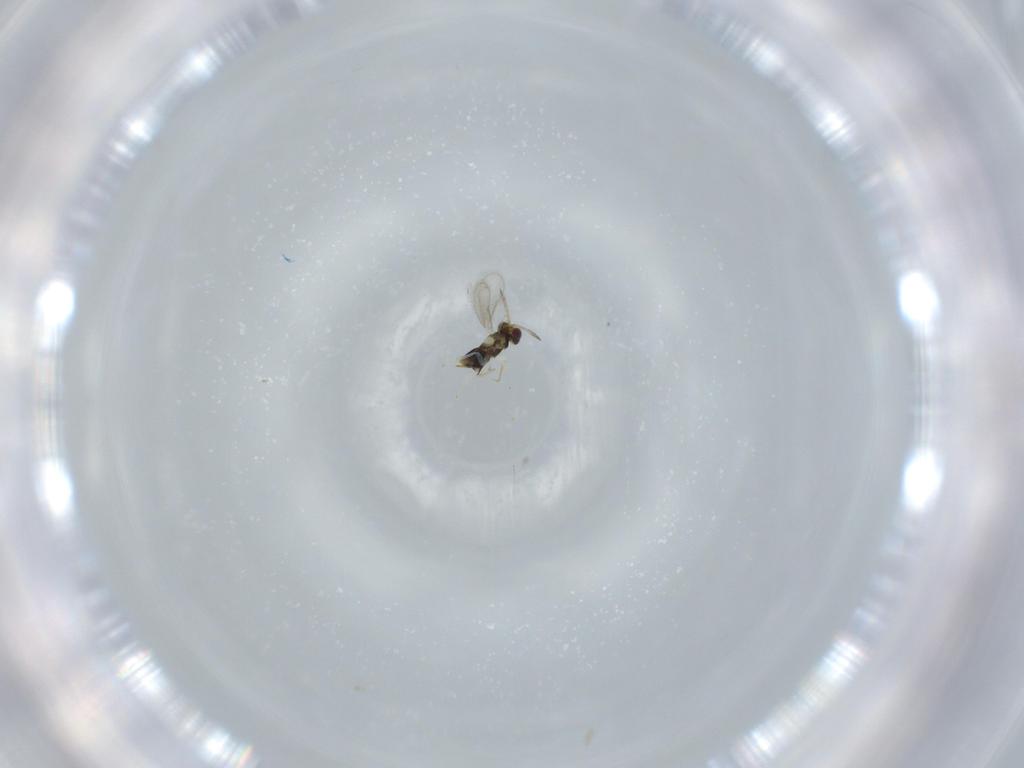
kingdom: Animalia
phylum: Arthropoda
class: Insecta
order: Hymenoptera
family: Aphelinidae
